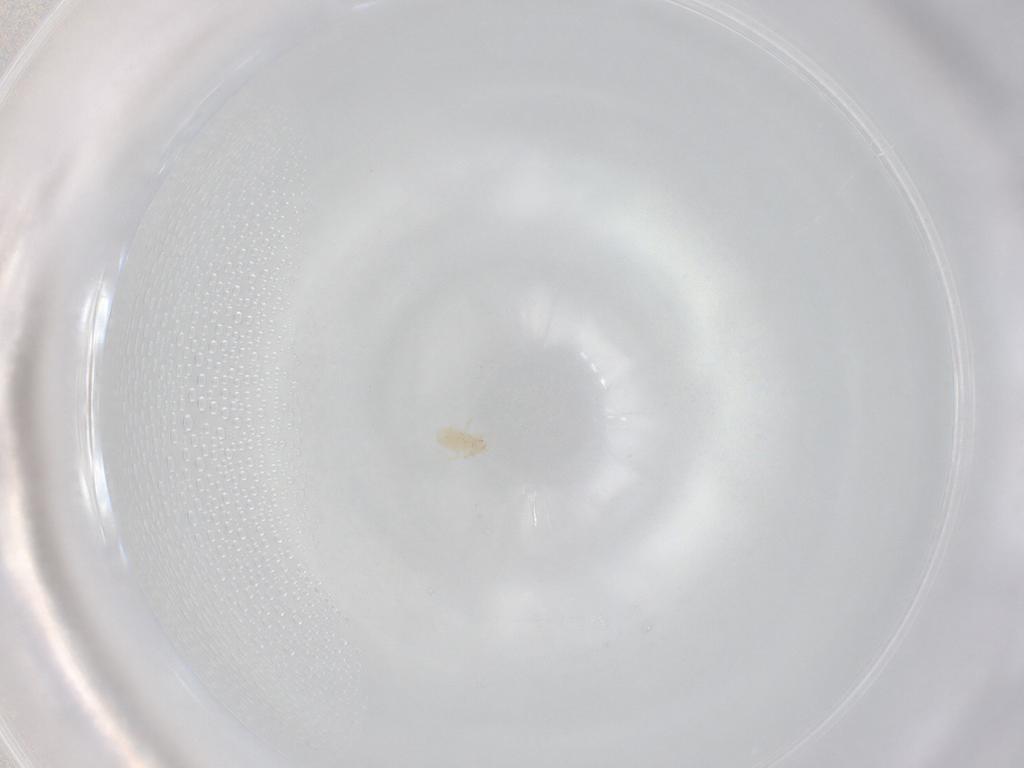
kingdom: Animalia
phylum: Arthropoda
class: Arachnida
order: Mesostigmata
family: Phytoseiidae
